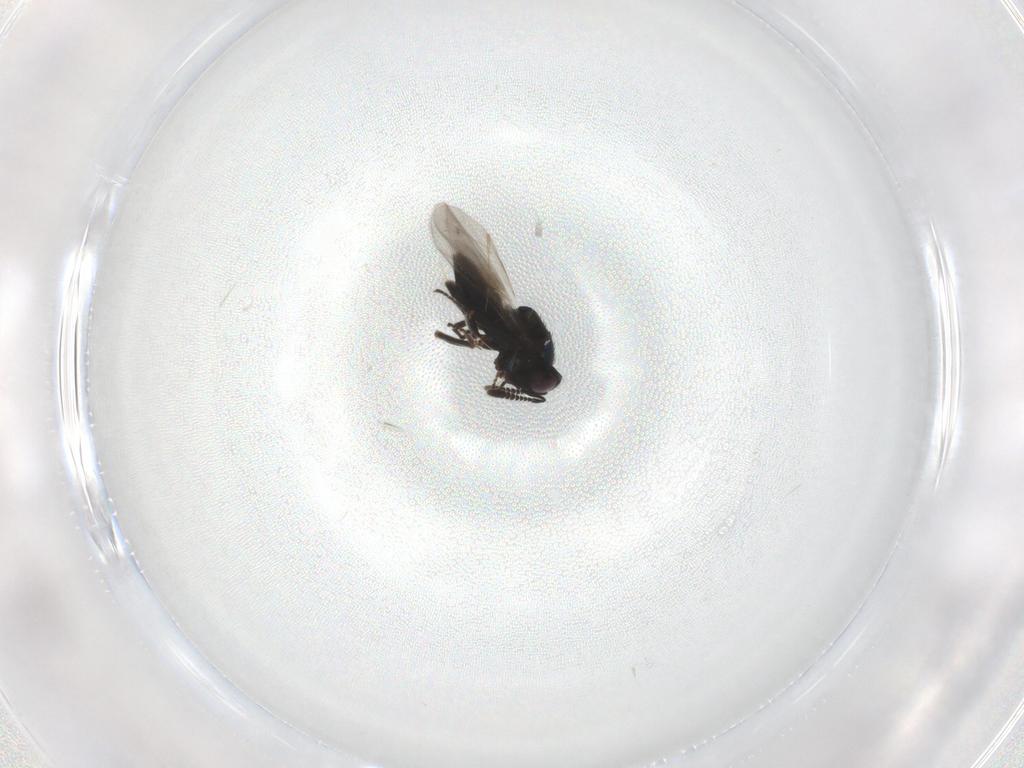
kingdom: Animalia
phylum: Arthropoda
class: Insecta
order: Hymenoptera
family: Encyrtidae
